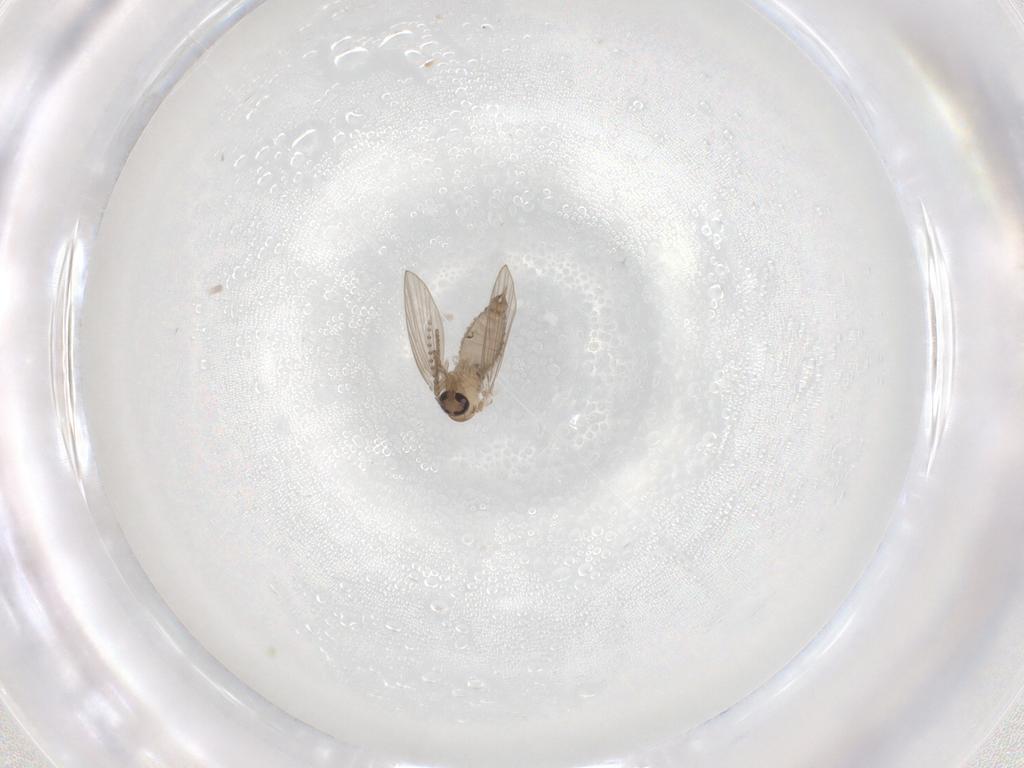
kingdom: Animalia
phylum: Arthropoda
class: Insecta
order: Diptera
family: Psychodidae
